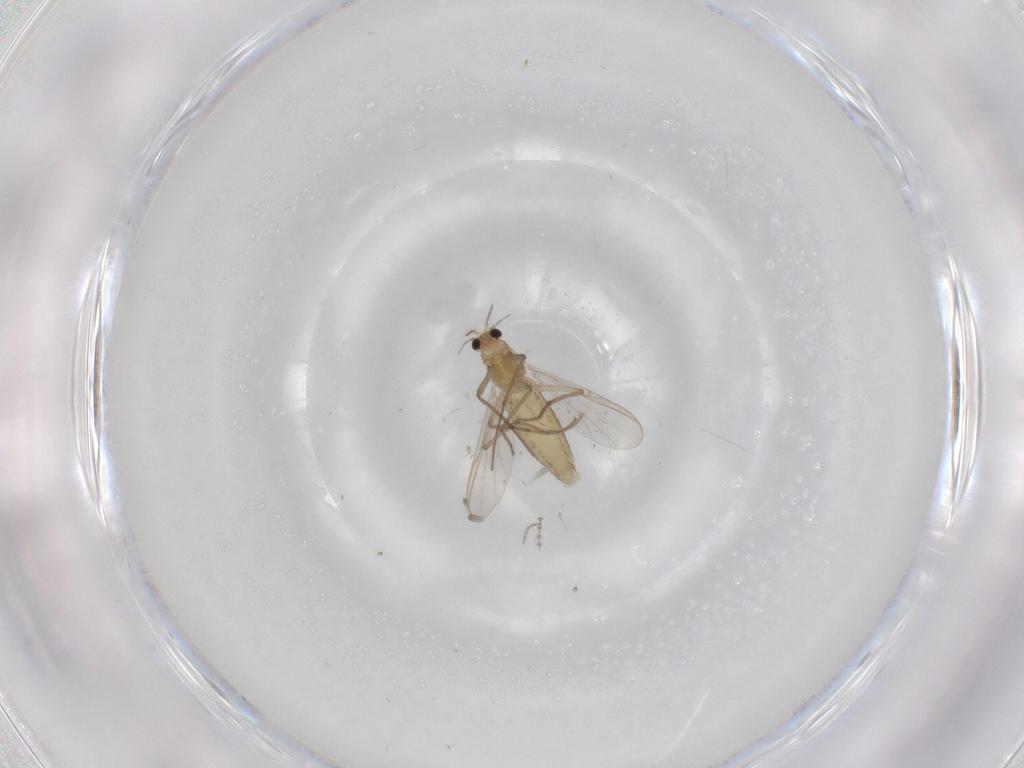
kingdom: Animalia
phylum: Arthropoda
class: Insecta
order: Diptera
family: Chironomidae
